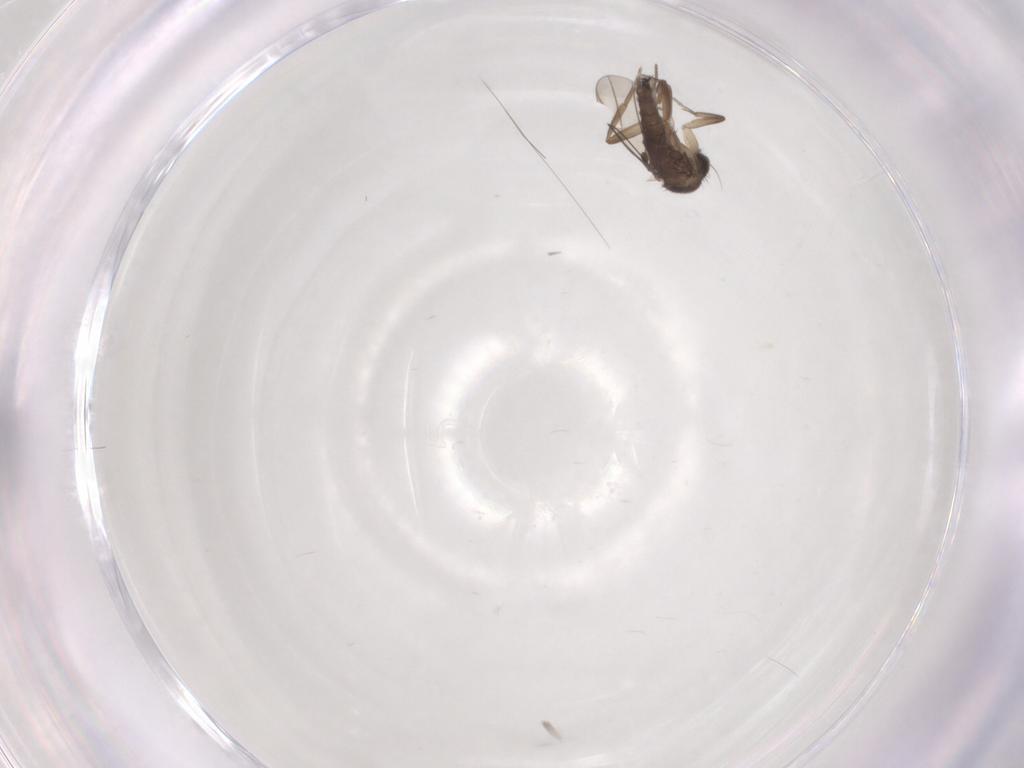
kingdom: Animalia
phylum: Arthropoda
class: Insecta
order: Diptera
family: Phoridae
